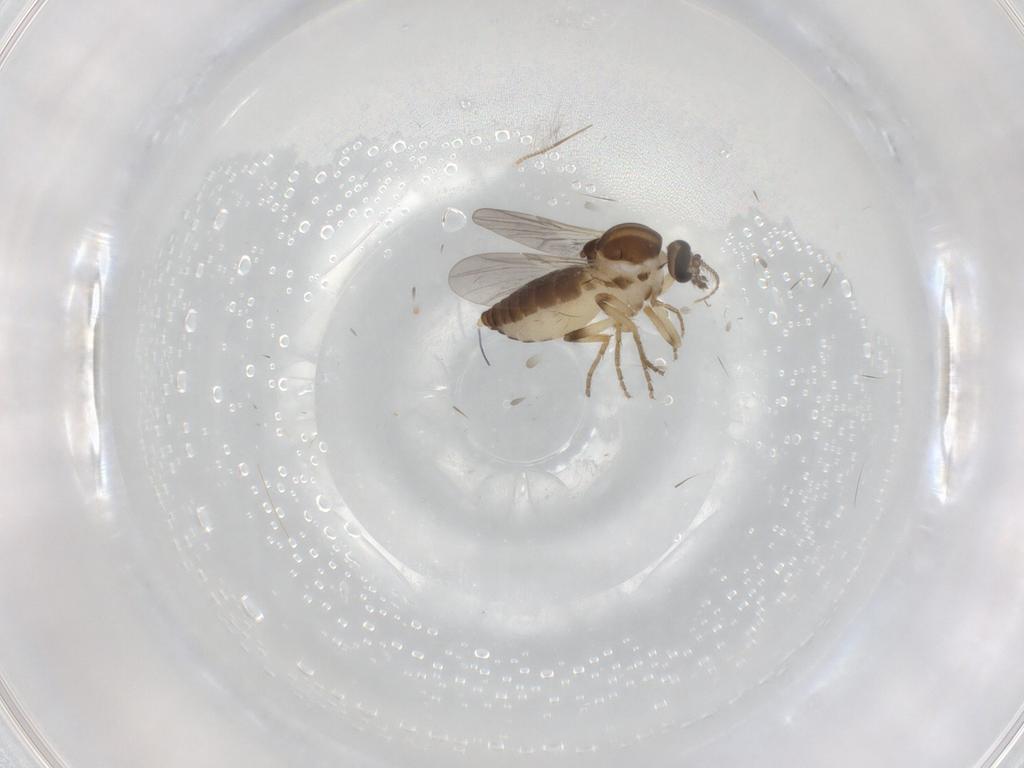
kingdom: Animalia
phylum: Arthropoda
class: Insecta
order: Diptera
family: Ceratopogonidae
